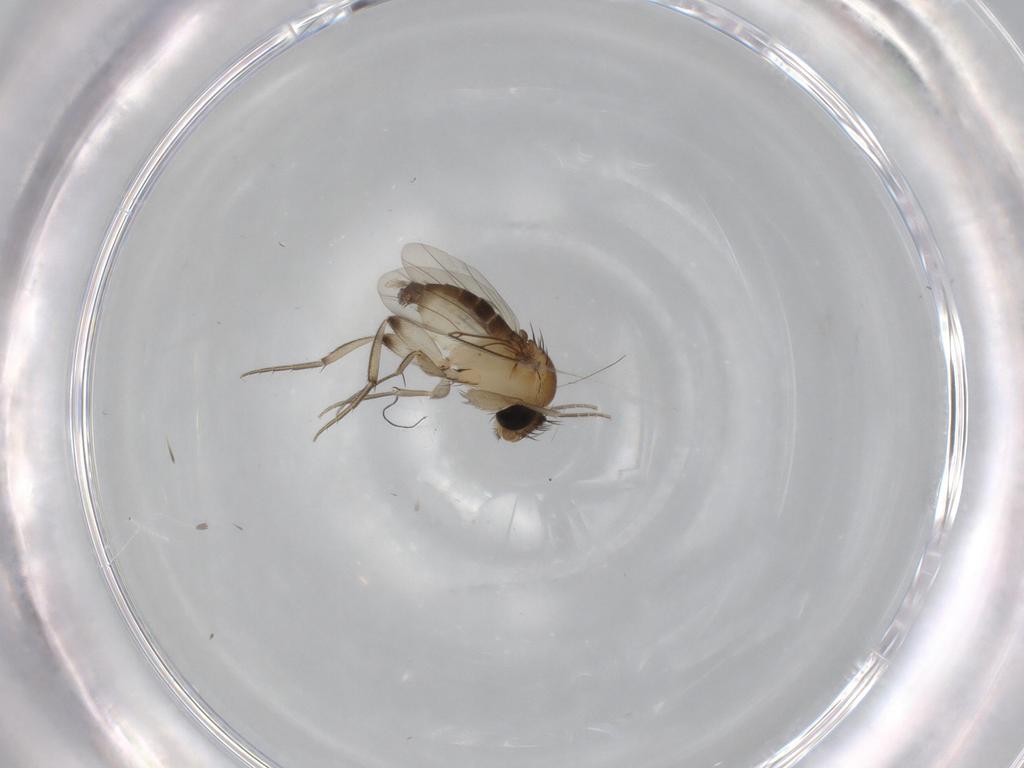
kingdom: Animalia
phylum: Arthropoda
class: Insecta
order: Diptera
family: Phoridae
